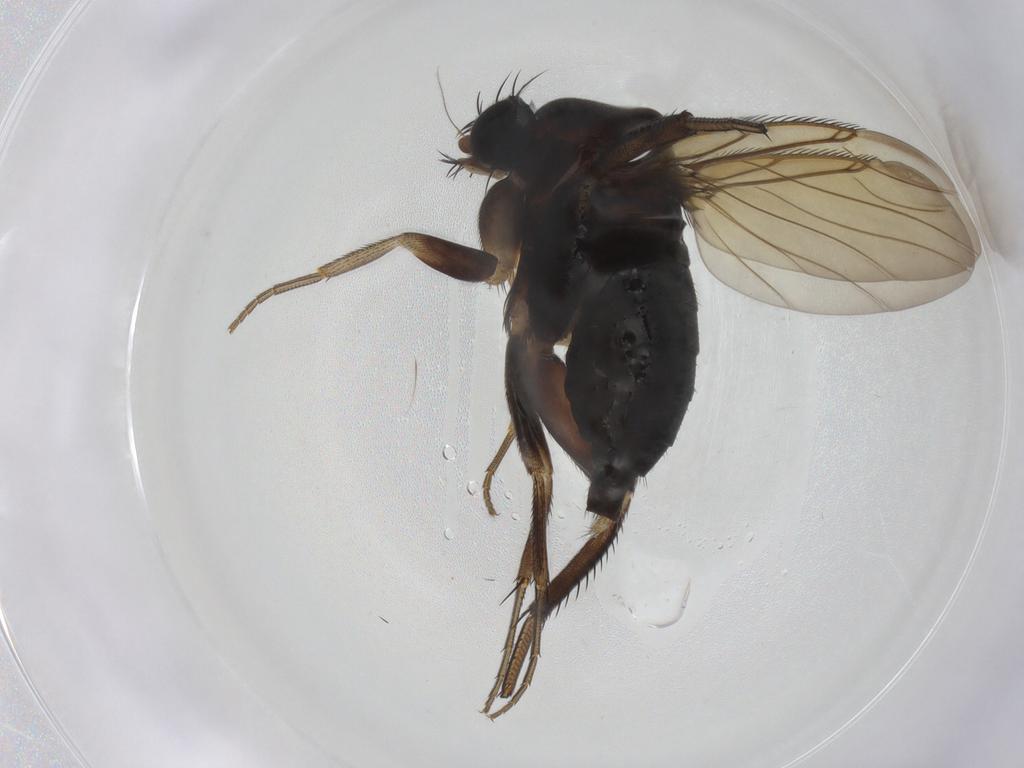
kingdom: Animalia
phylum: Arthropoda
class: Insecta
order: Diptera
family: Phoridae
